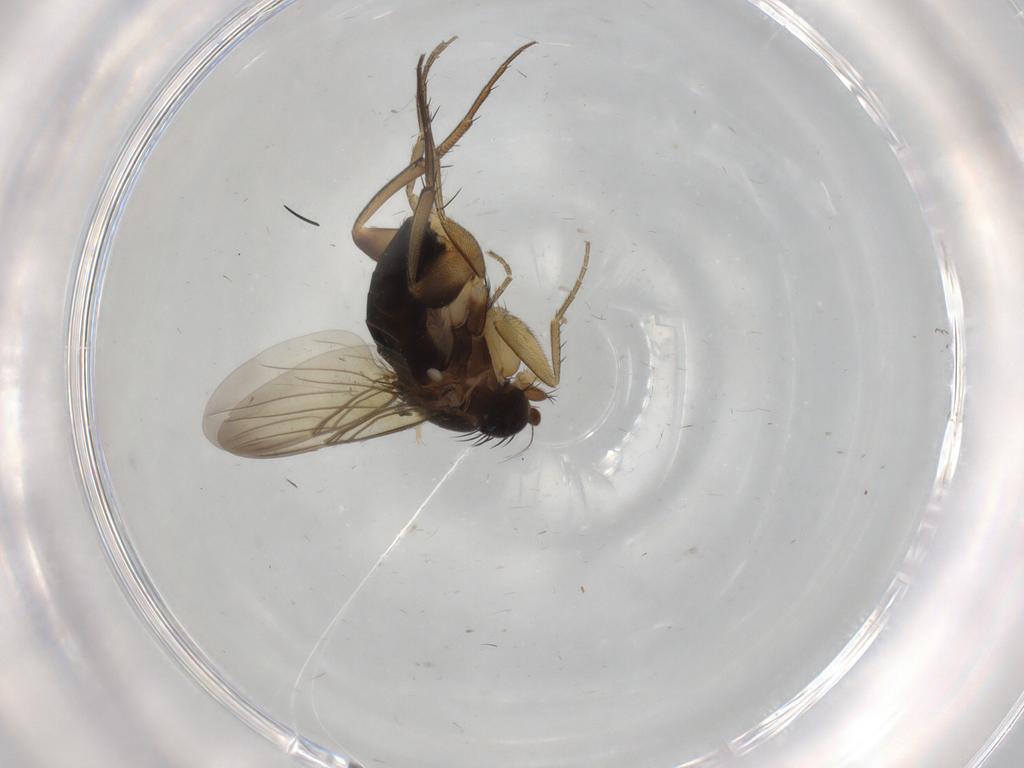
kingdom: Animalia
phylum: Arthropoda
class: Insecta
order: Diptera
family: Phoridae
